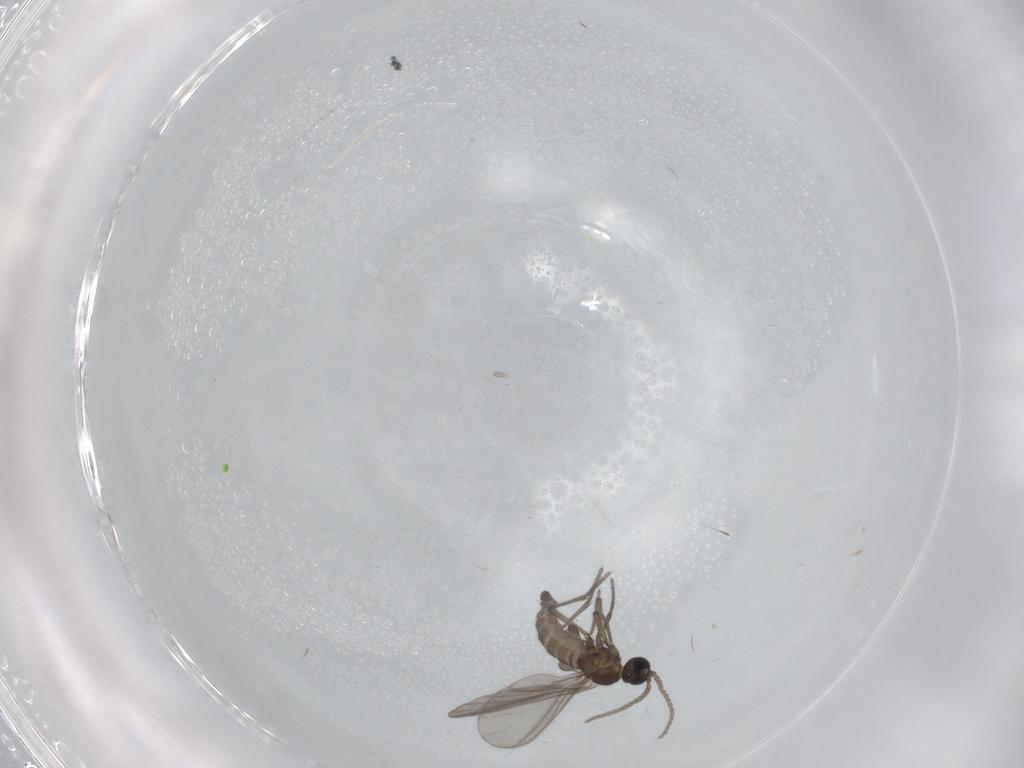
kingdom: Animalia
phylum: Arthropoda
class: Insecta
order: Diptera
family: Sciaridae
